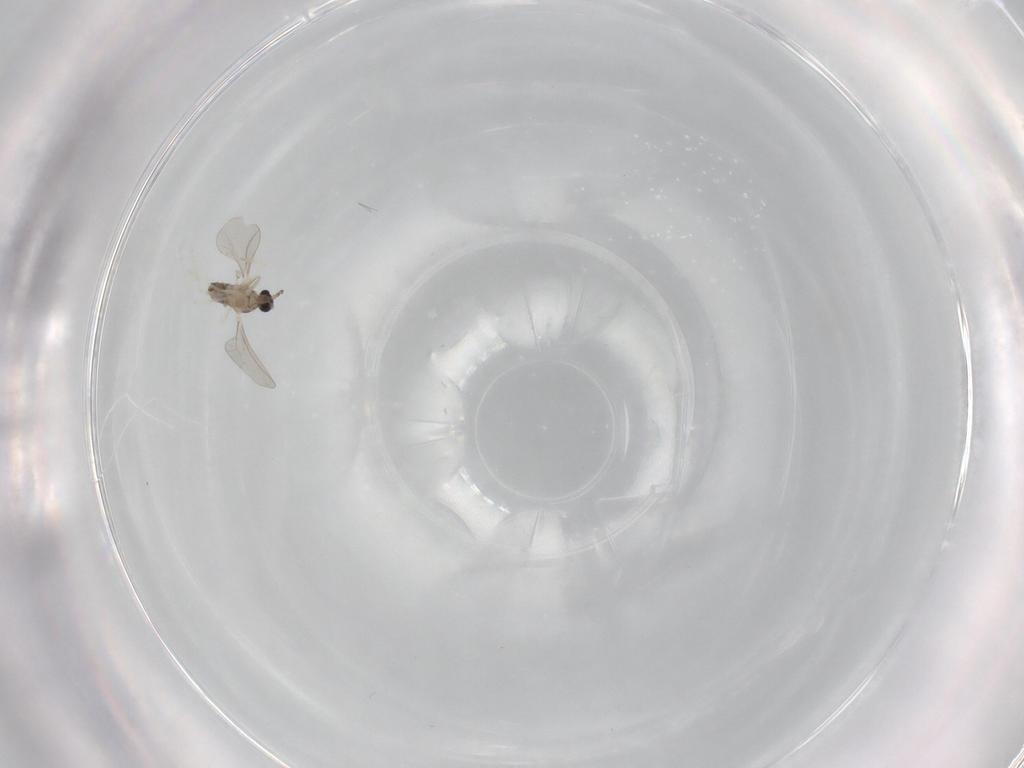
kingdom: Animalia
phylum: Arthropoda
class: Insecta
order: Diptera
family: Cecidomyiidae
